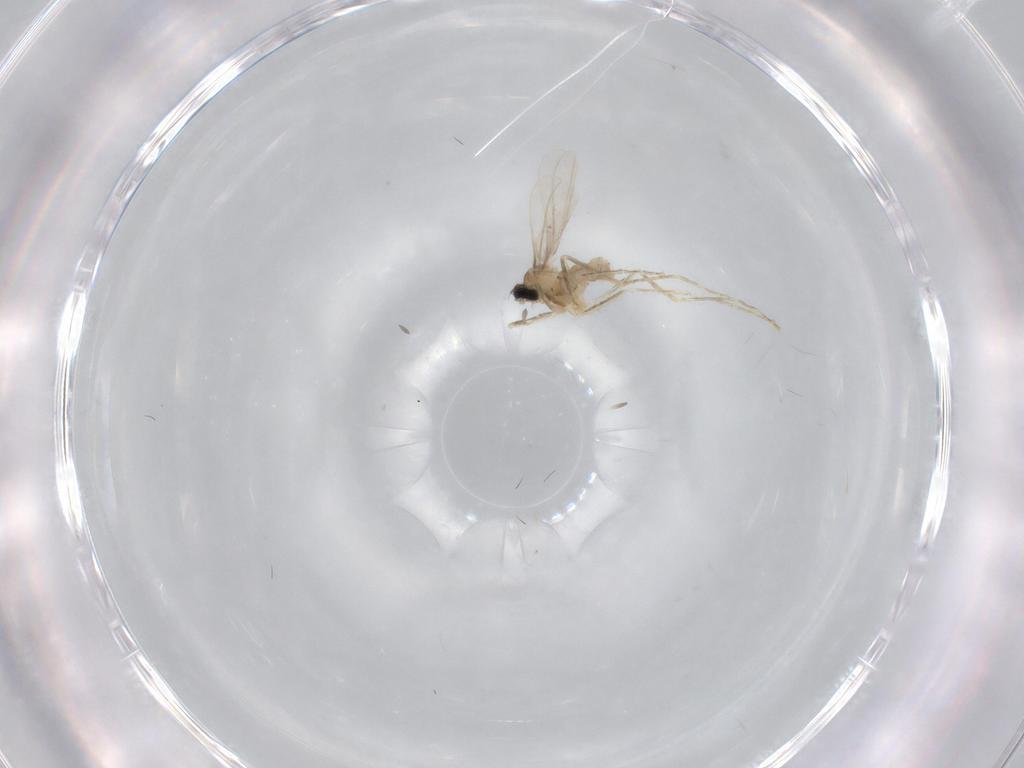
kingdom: Animalia
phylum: Arthropoda
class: Insecta
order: Diptera
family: Cecidomyiidae
